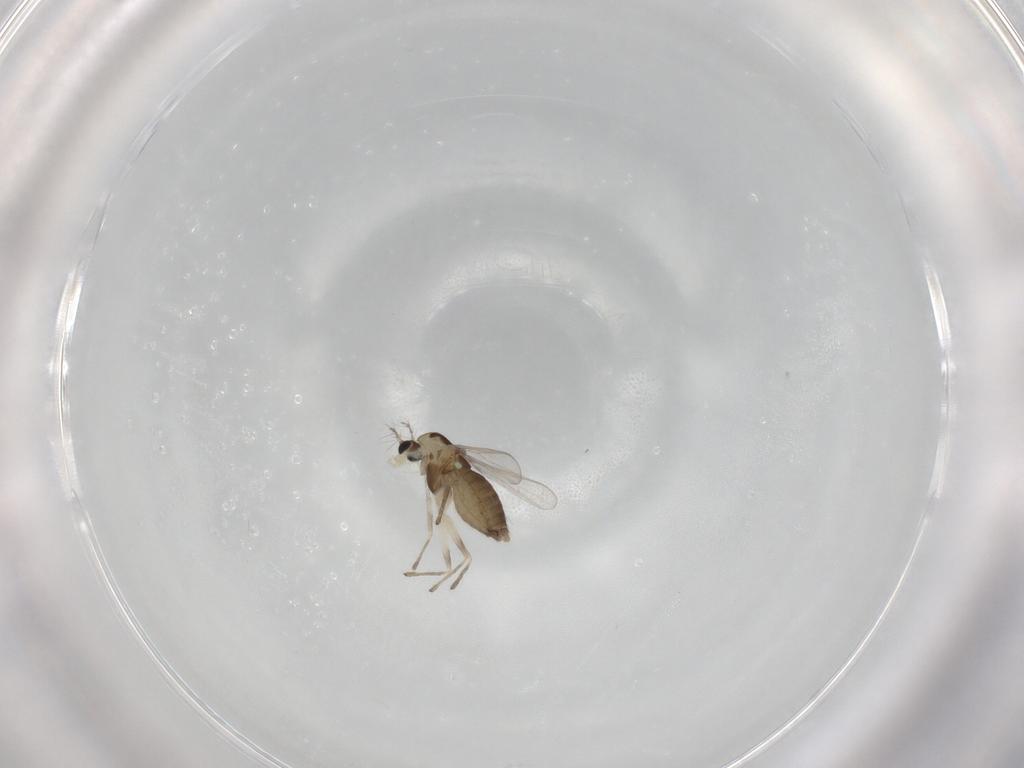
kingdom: Animalia
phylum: Arthropoda
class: Insecta
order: Diptera
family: Chironomidae
